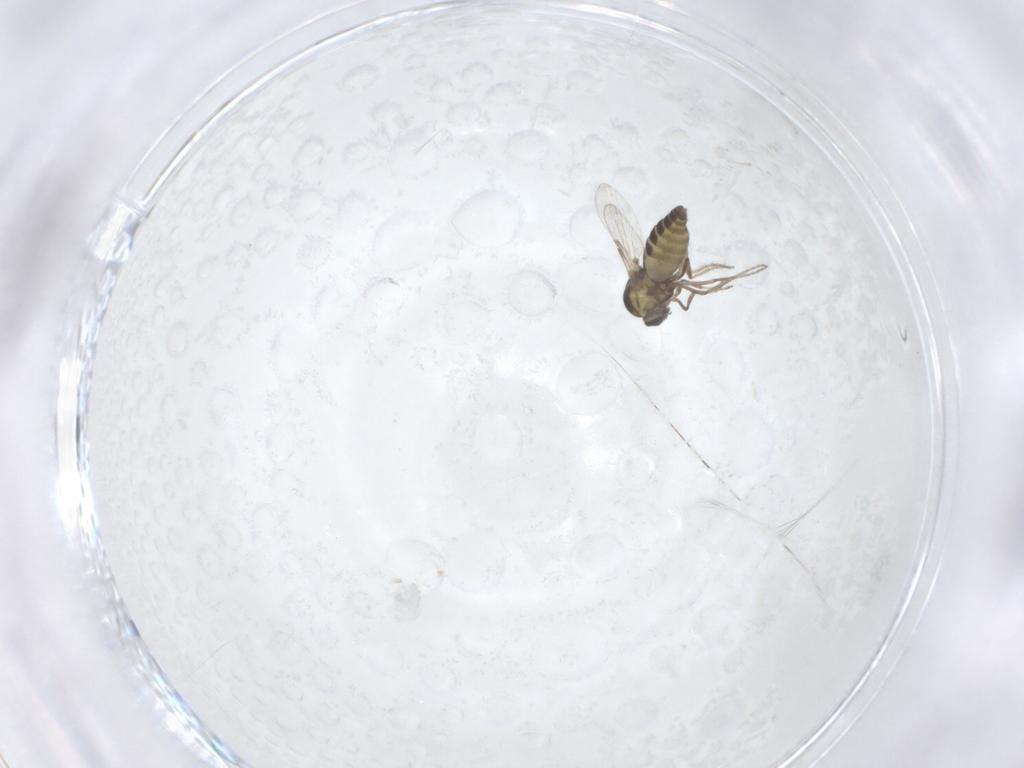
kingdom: Animalia
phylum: Arthropoda
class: Insecta
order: Diptera
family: Ceratopogonidae
